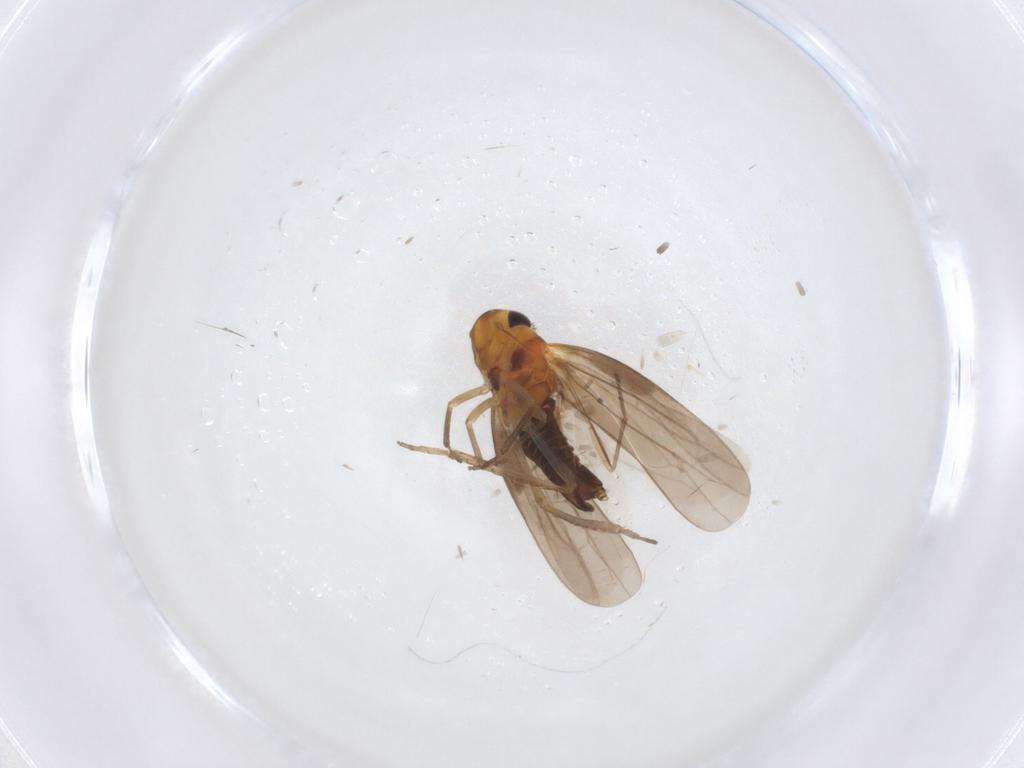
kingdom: Animalia
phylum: Arthropoda
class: Insecta
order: Hemiptera
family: Cicadellidae
